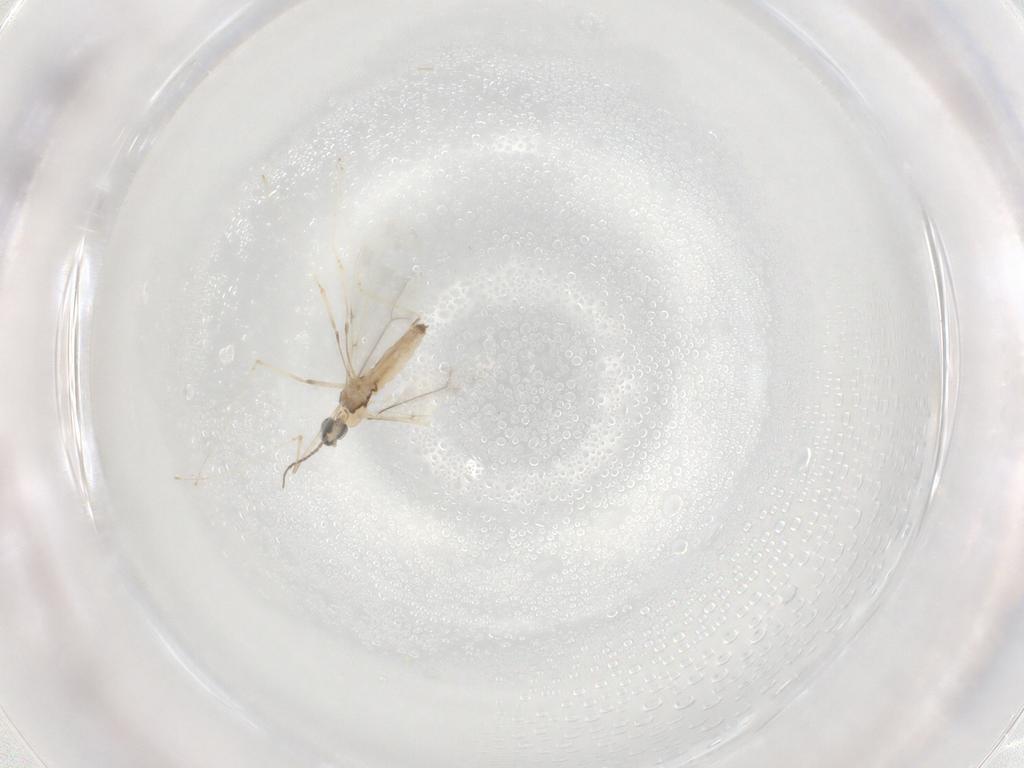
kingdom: Animalia
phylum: Arthropoda
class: Insecta
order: Diptera
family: Cecidomyiidae
